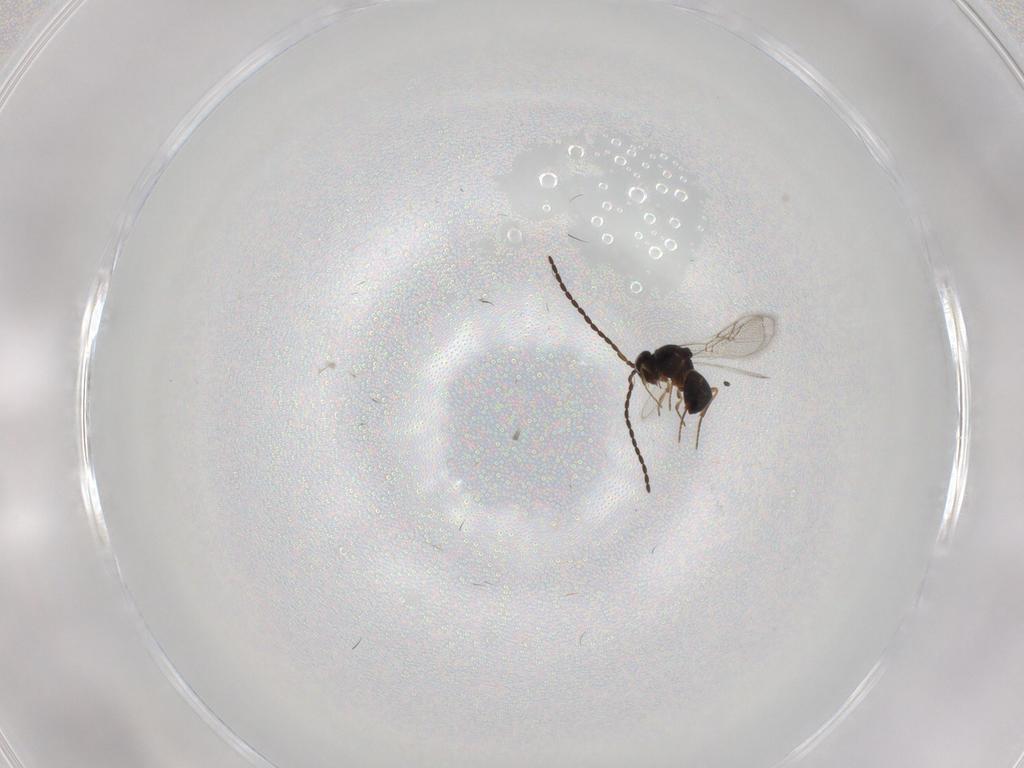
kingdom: Animalia
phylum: Arthropoda
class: Insecta
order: Hymenoptera
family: Figitidae
